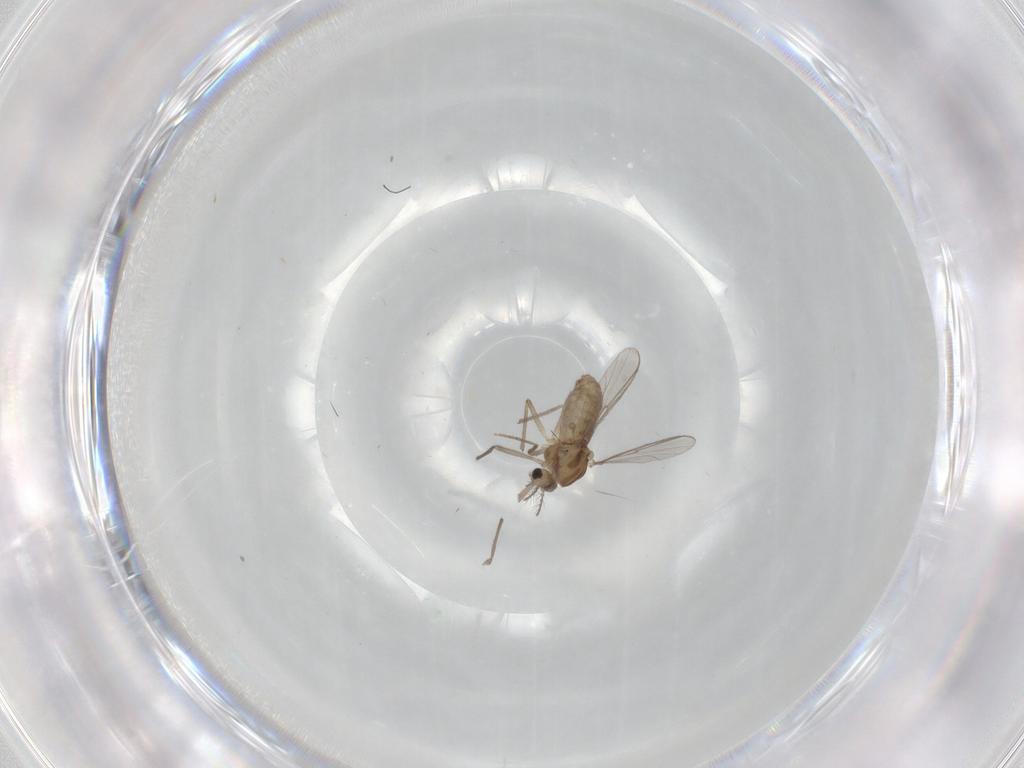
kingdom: Animalia
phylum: Arthropoda
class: Insecta
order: Diptera
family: Chironomidae
